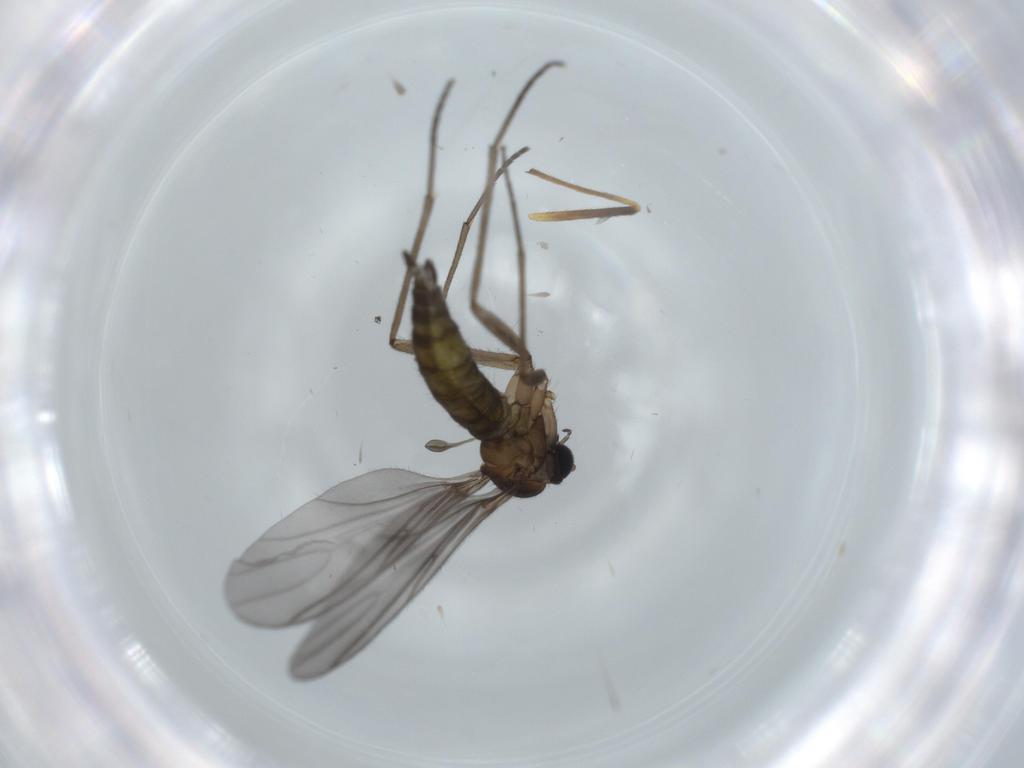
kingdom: Animalia
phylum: Arthropoda
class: Insecta
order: Diptera
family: Chironomidae
